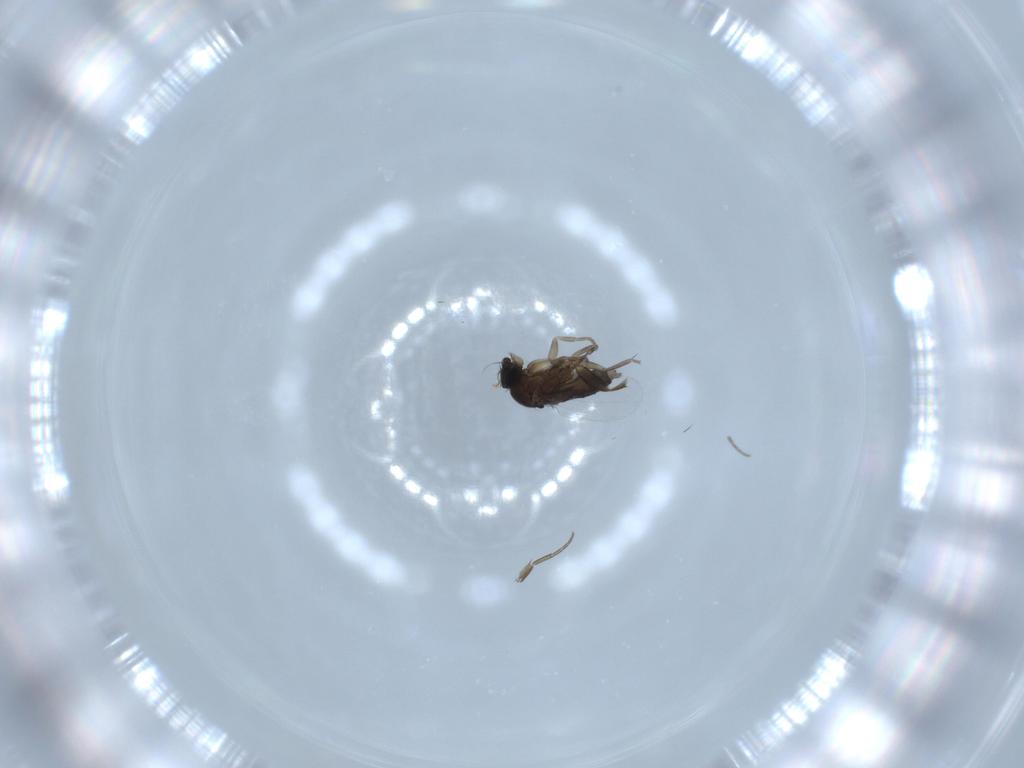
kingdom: Animalia
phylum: Arthropoda
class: Insecta
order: Diptera
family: Phoridae
